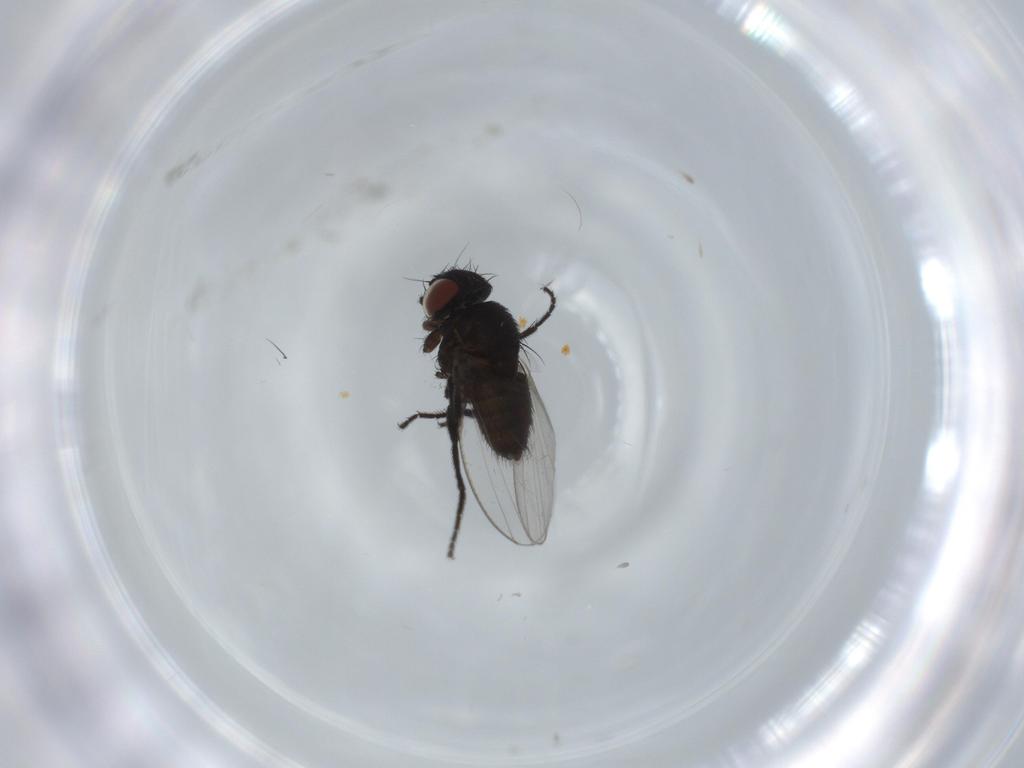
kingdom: Animalia
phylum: Arthropoda
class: Insecta
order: Diptera
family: Milichiidae
